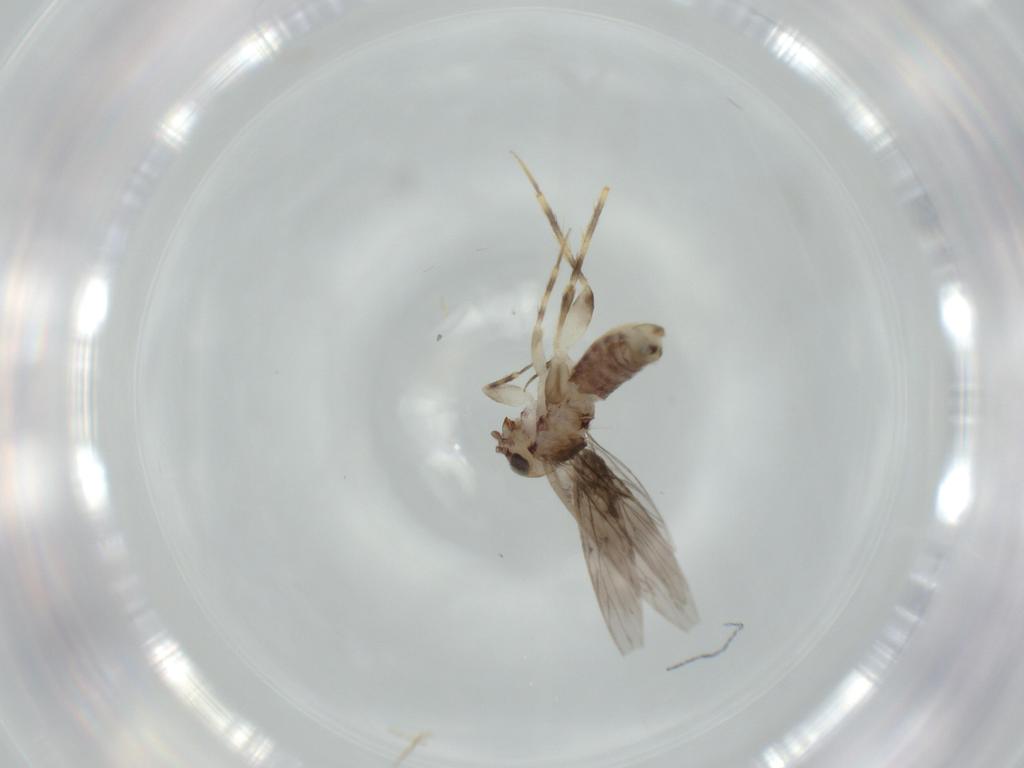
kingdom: Animalia
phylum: Arthropoda
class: Insecta
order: Psocodea
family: Lepidopsocidae
